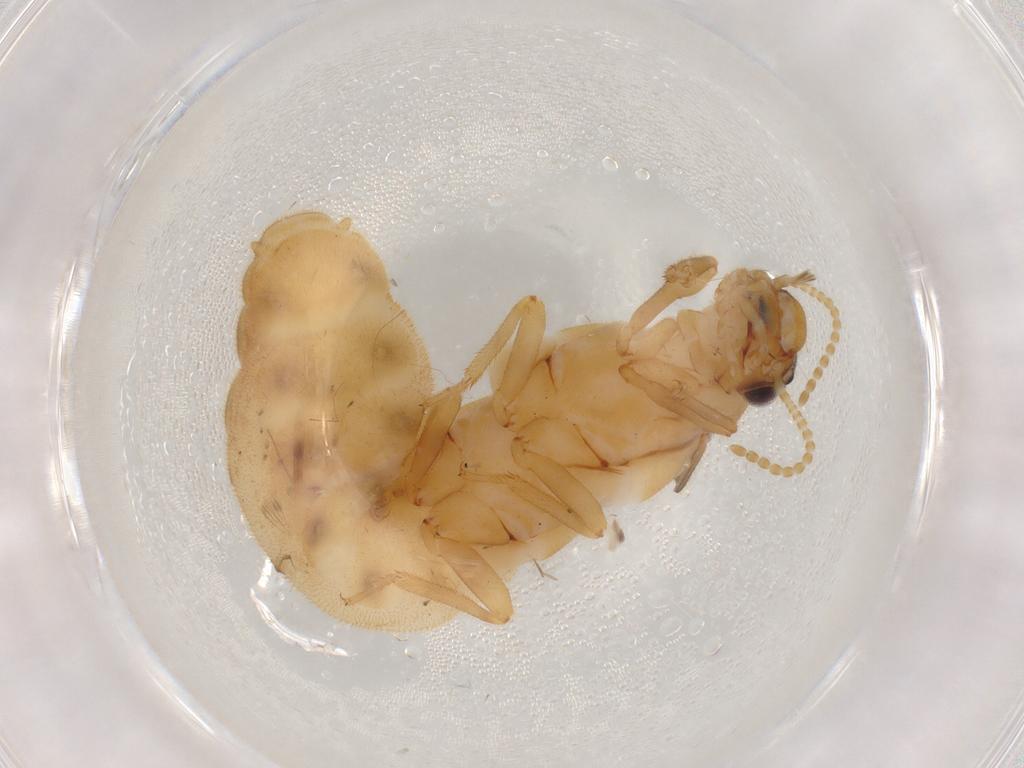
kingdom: Animalia
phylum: Arthropoda
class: Insecta
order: Blattodea
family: Termitidae
